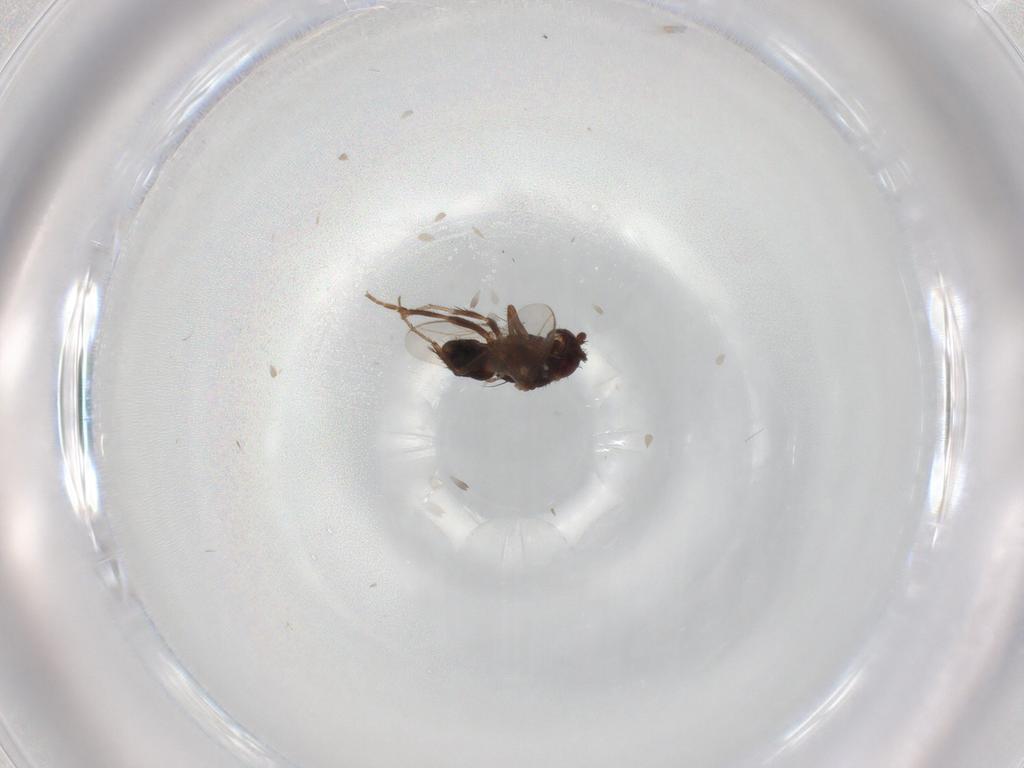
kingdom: Animalia
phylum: Arthropoda
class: Insecta
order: Diptera
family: Sphaeroceridae
